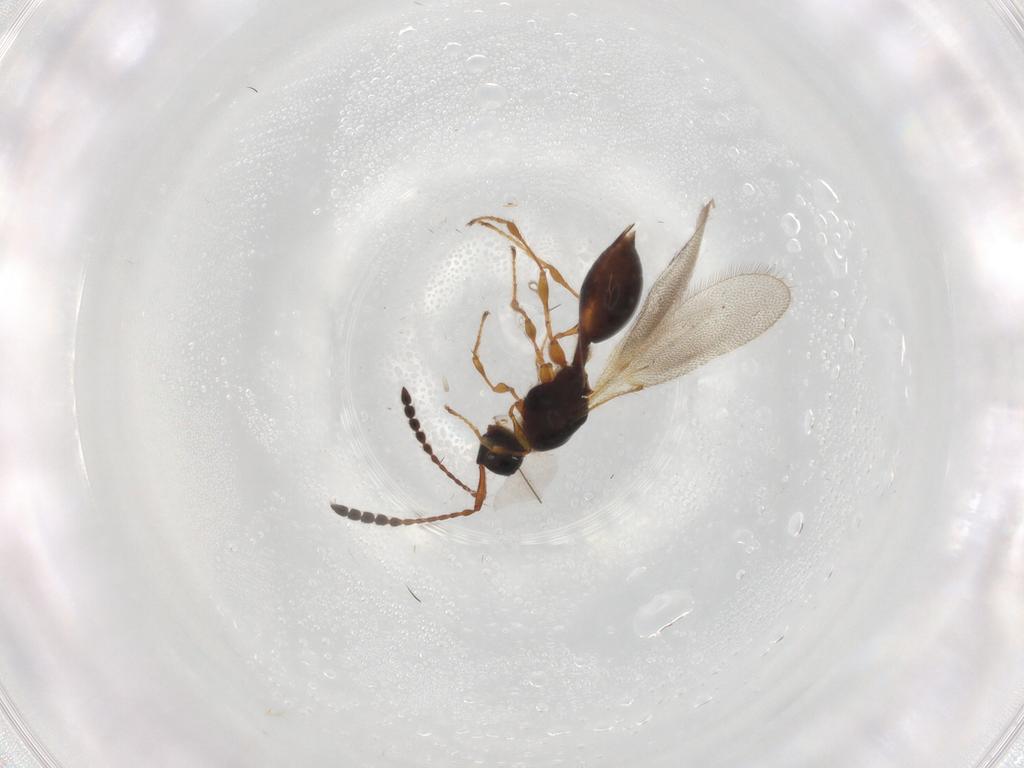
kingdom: Animalia
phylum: Arthropoda
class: Insecta
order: Hymenoptera
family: Diapriidae
